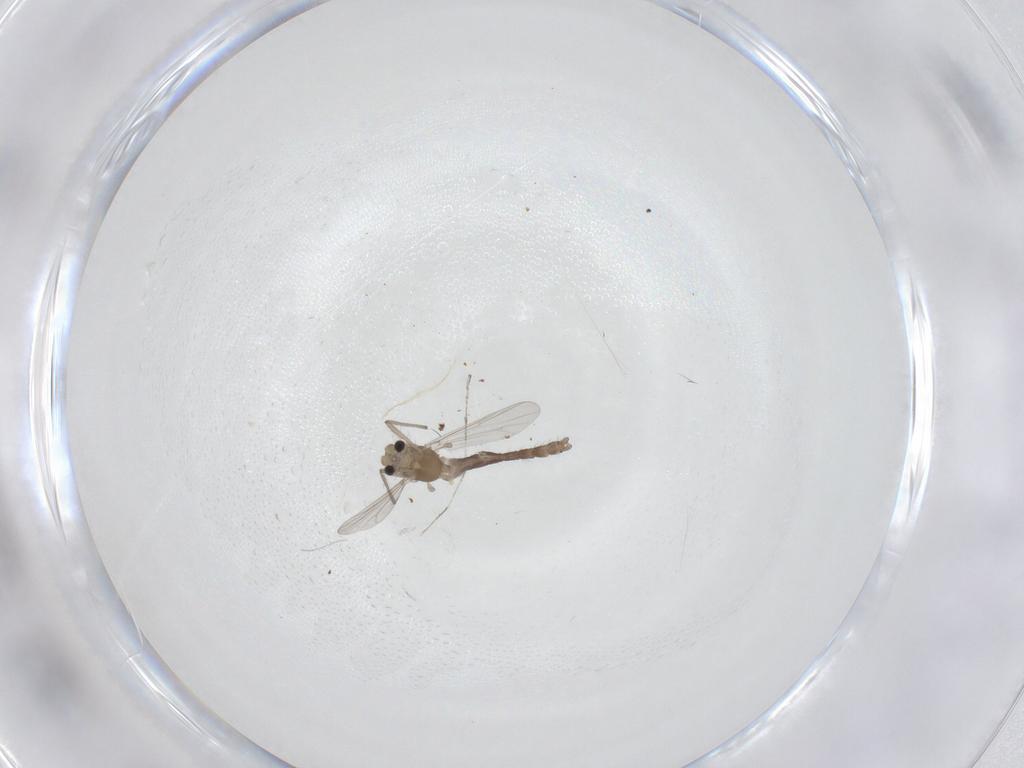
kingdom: Animalia
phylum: Arthropoda
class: Insecta
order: Diptera
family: Chironomidae
